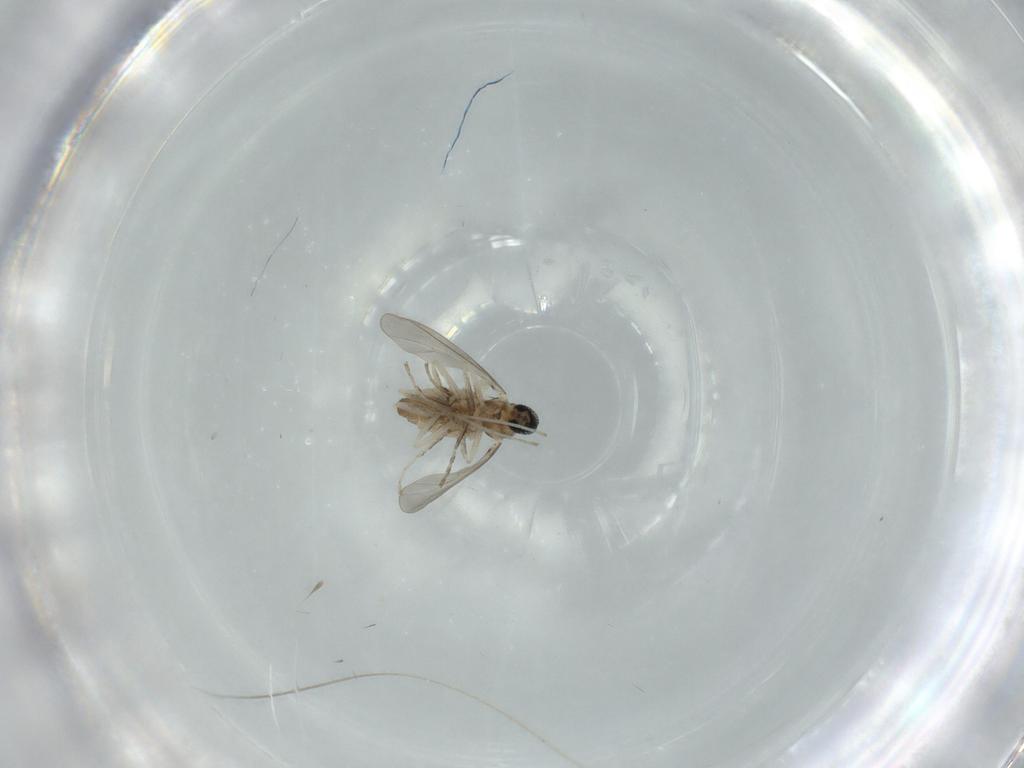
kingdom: Animalia
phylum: Arthropoda
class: Insecta
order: Diptera
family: Cecidomyiidae
